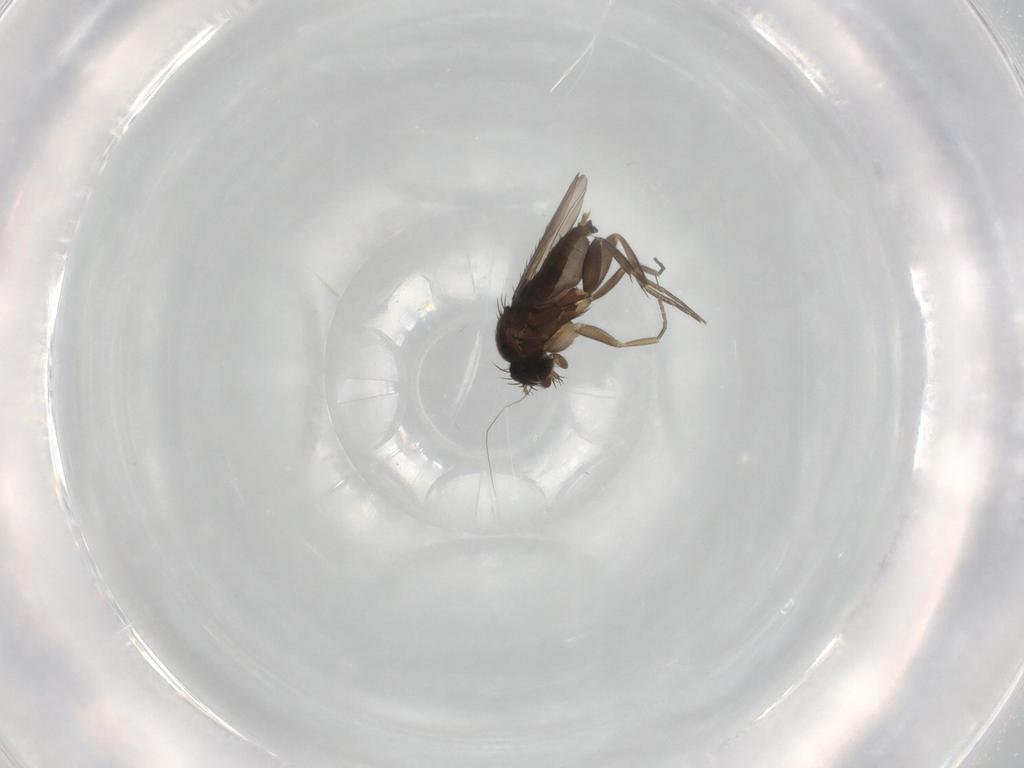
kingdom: Animalia
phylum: Arthropoda
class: Insecta
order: Diptera
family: Phoridae
